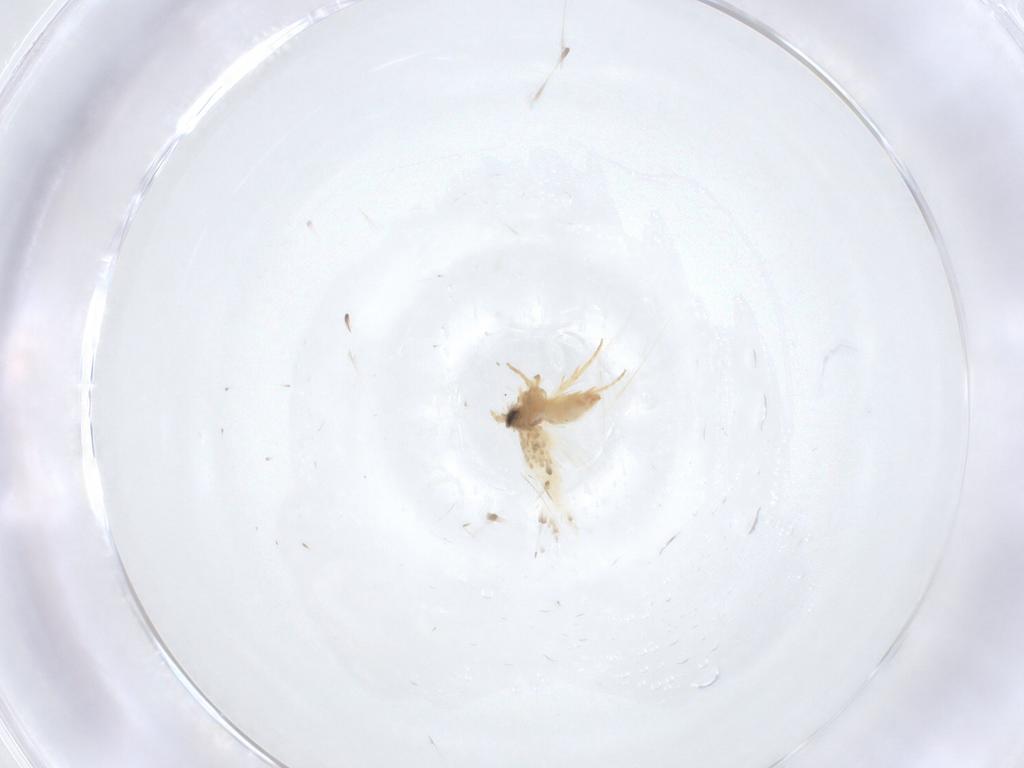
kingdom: Animalia
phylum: Arthropoda
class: Insecta
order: Lepidoptera
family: Crambidae
